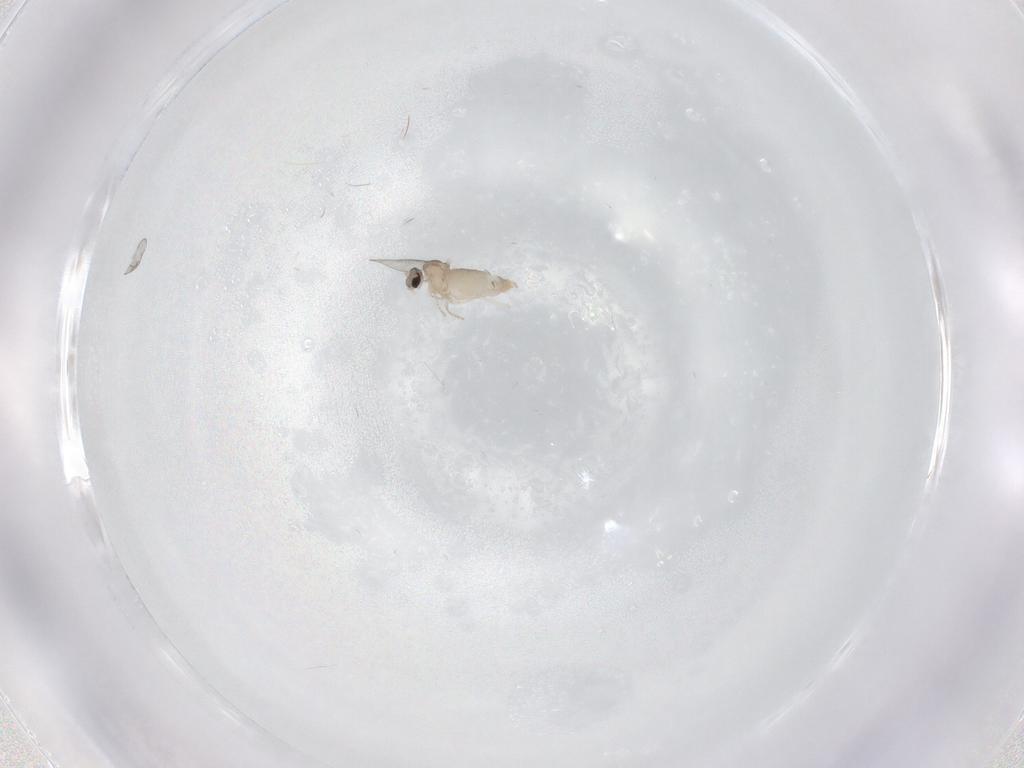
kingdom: Animalia
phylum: Arthropoda
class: Insecta
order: Diptera
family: Cecidomyiidae
